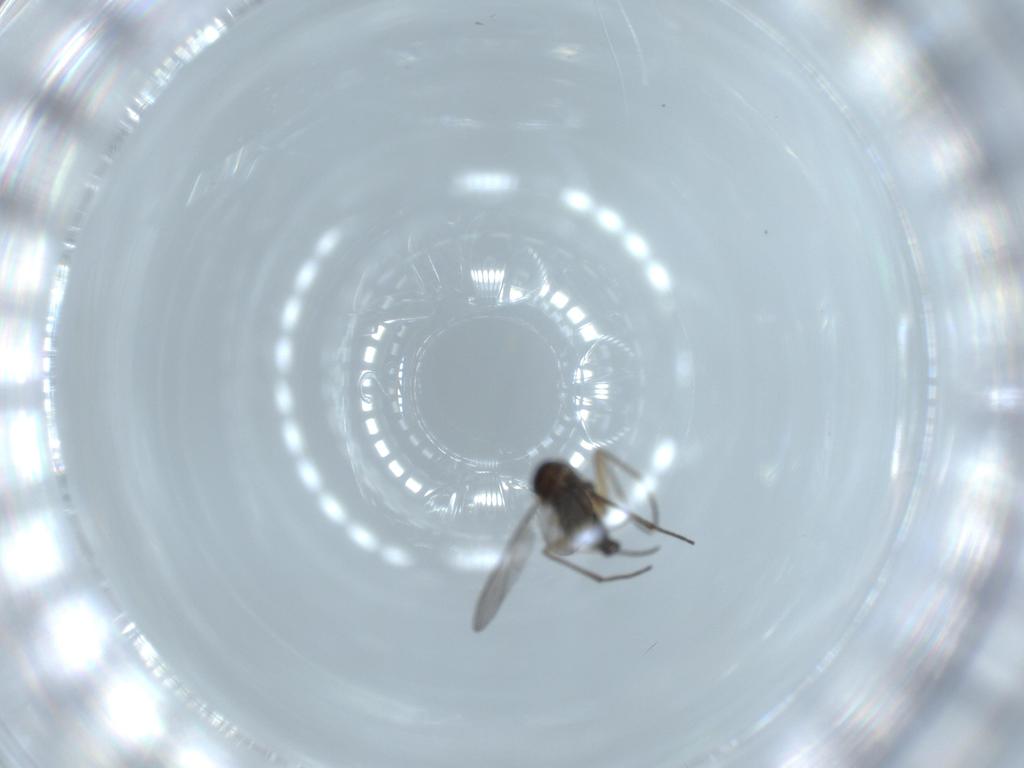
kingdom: Animalia
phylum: Arthropoda
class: Insecta
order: Diptera
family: Sciaridae
